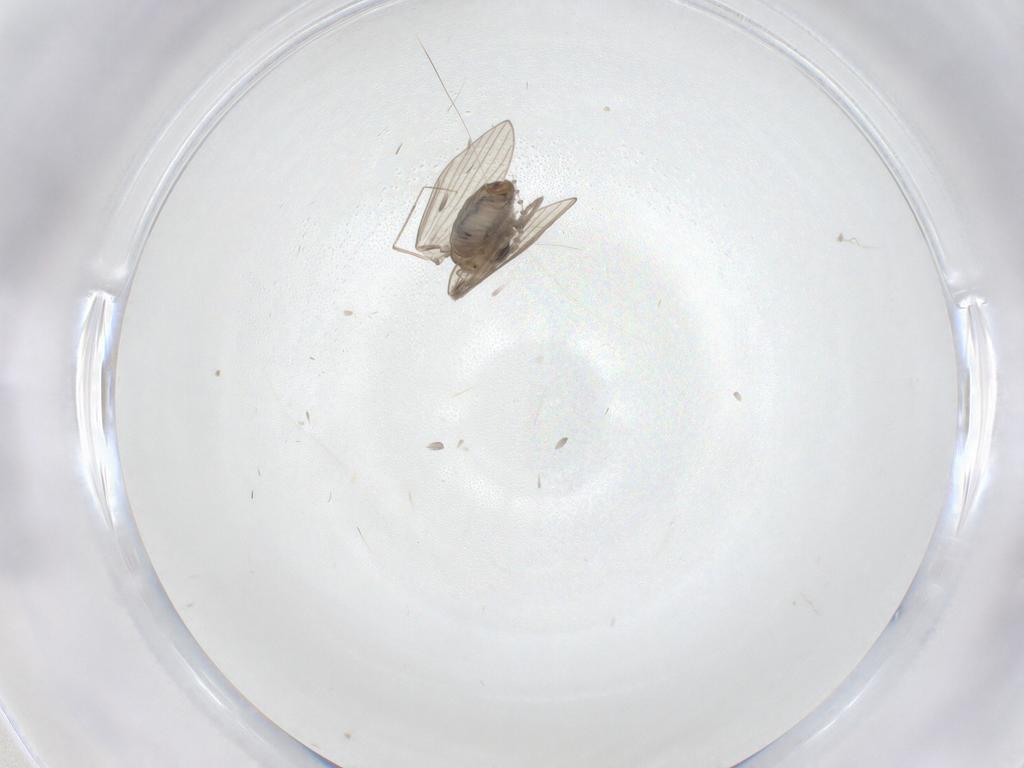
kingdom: Animalia
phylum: Arthropoda
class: Insecta
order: Diptera
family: Psychodidae
